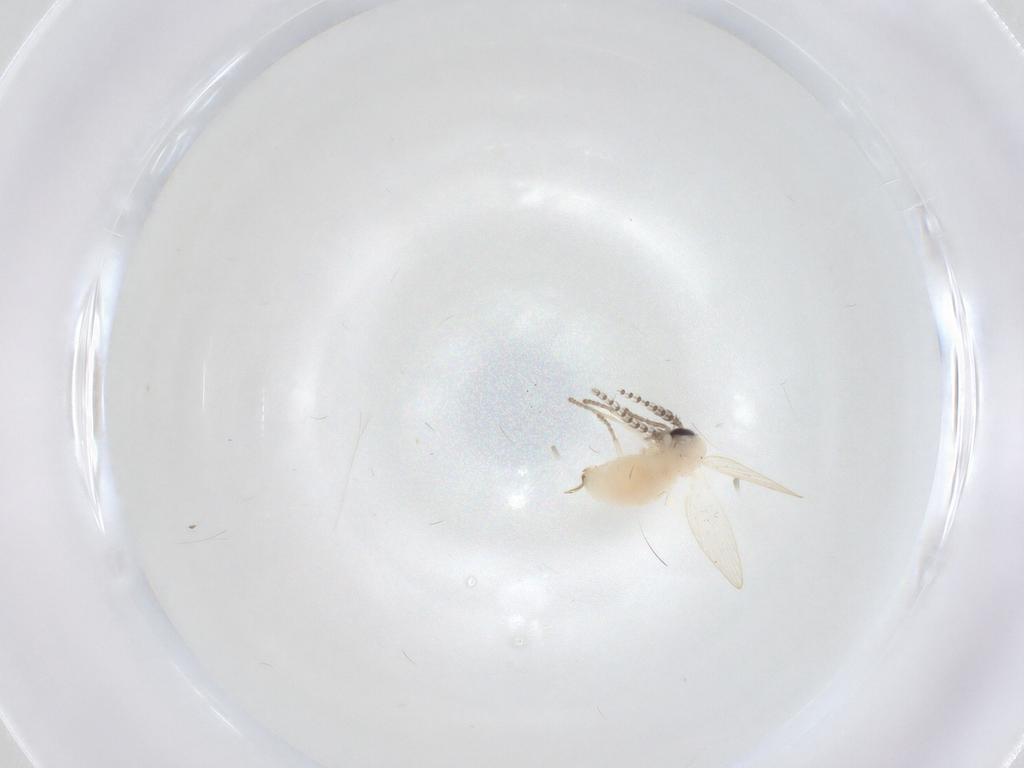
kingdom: Animalia
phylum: Arthropoda
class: Insecta
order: Diptera
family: Psychodidae
